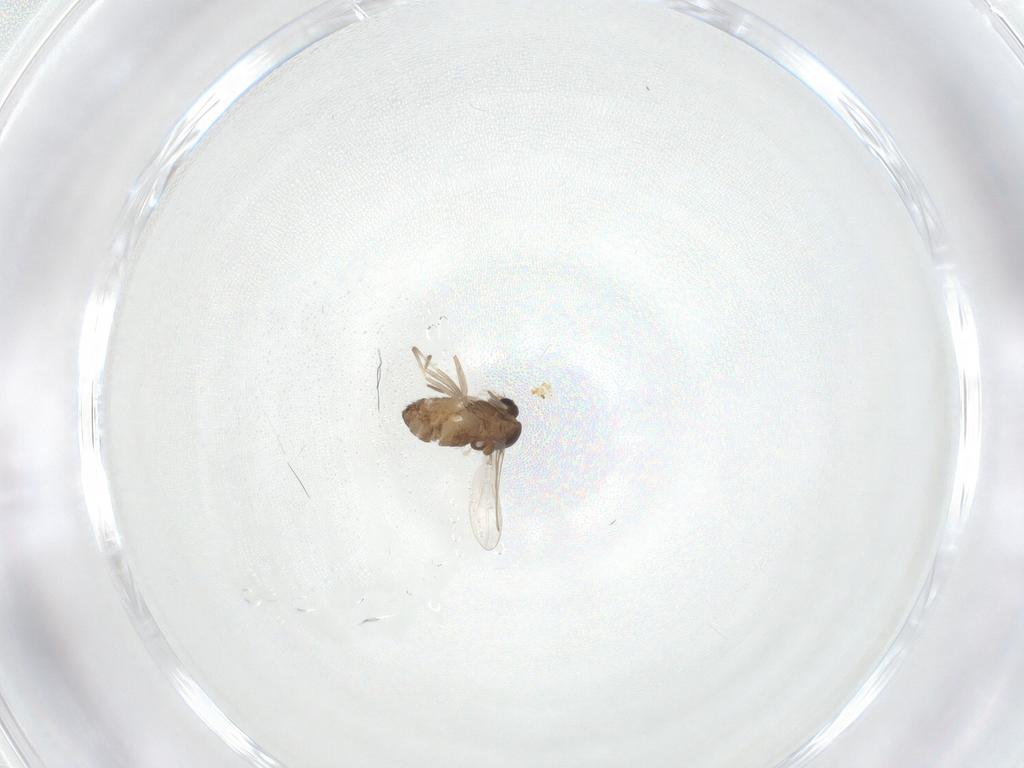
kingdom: Animalia
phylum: Arthropoda
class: Insecta
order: Diptera
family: Chironomidae
